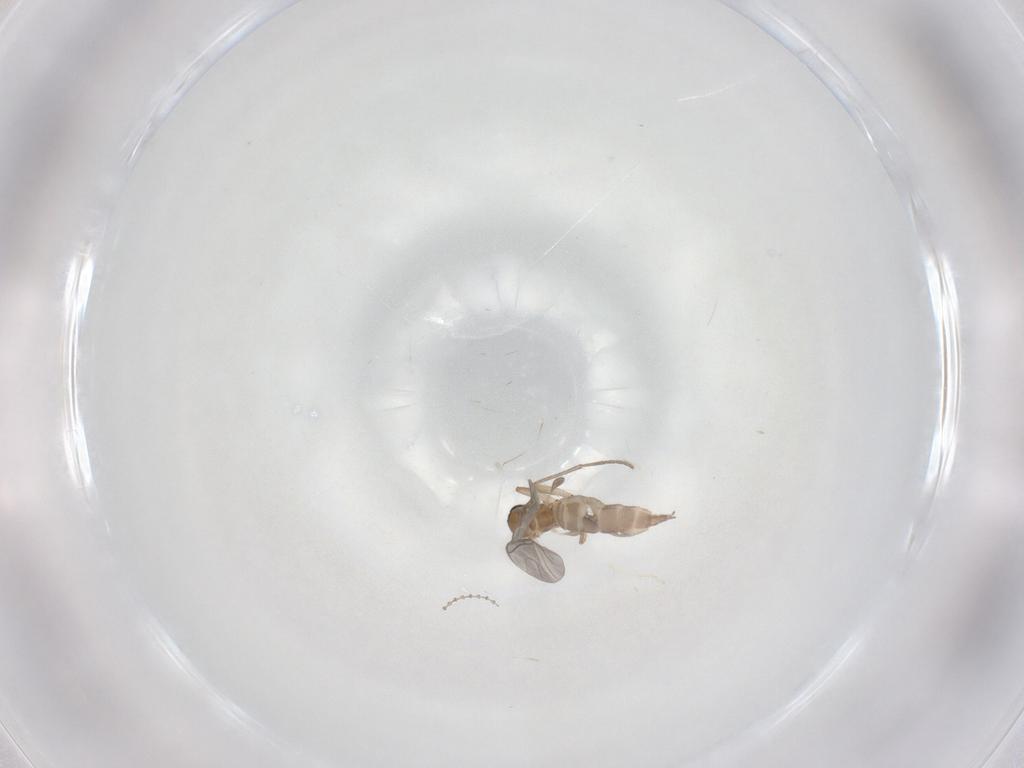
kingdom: Animalia
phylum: Arthropoda
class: Insecta
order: Diptera
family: Sciaridae
